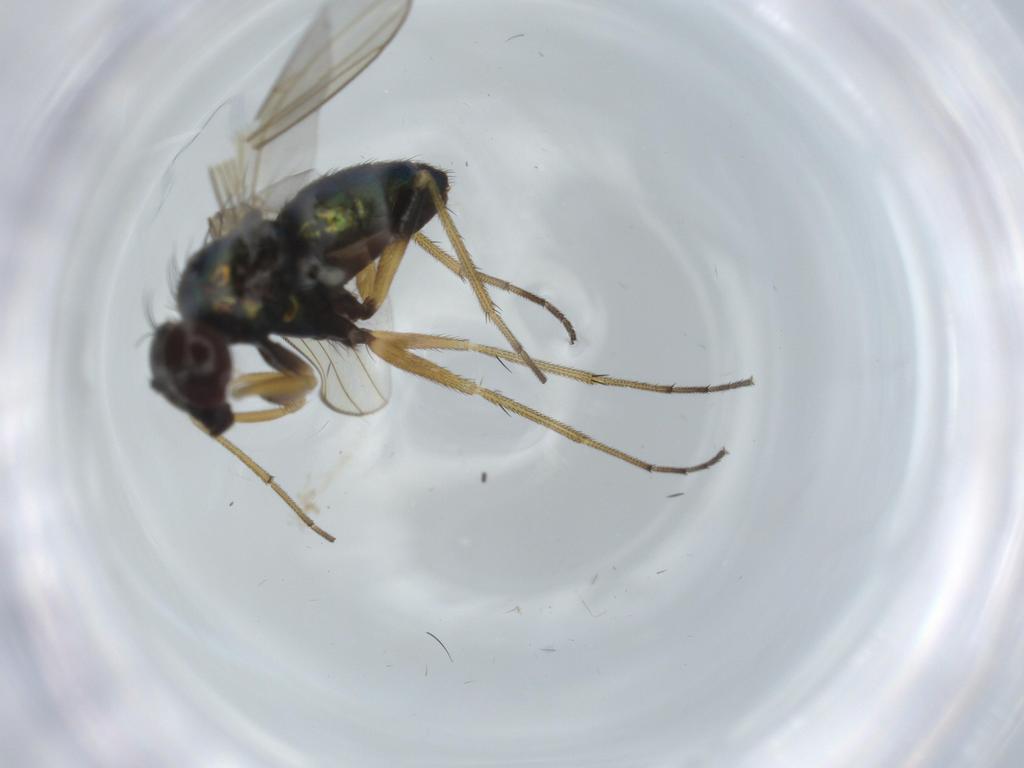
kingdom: Animalia
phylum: Arthropoda
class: Insecta
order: Diptera
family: Dolichopodidae
